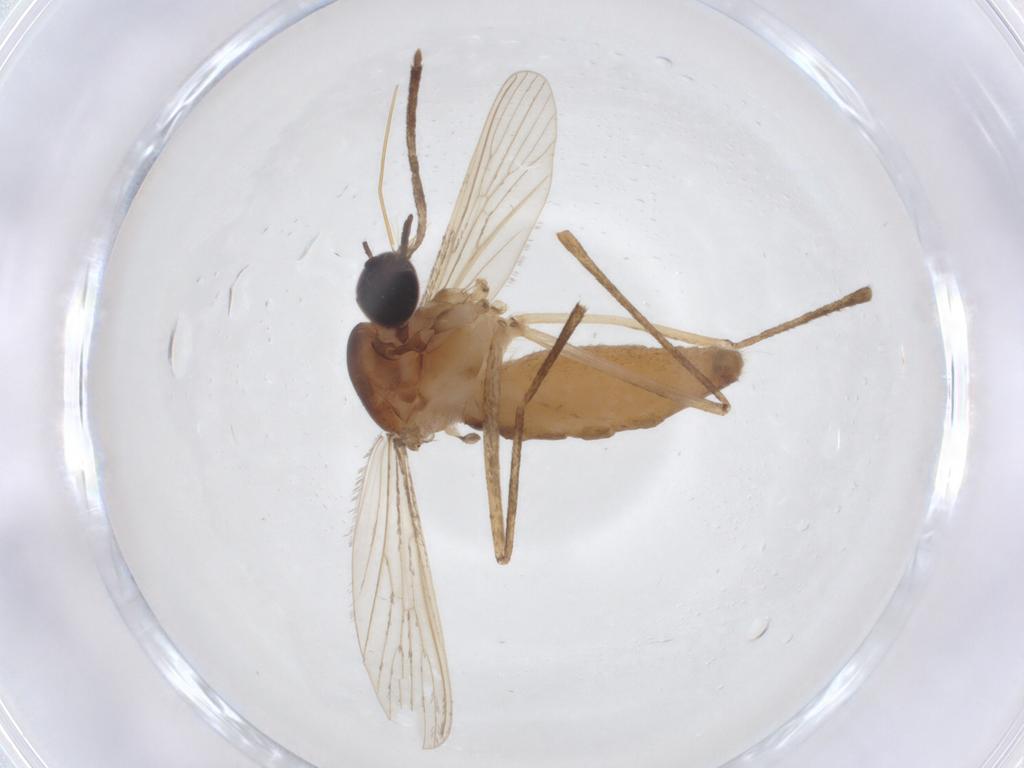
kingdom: Animalia
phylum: Arthropoda
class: Insecta
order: Diptera
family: Culicidae
